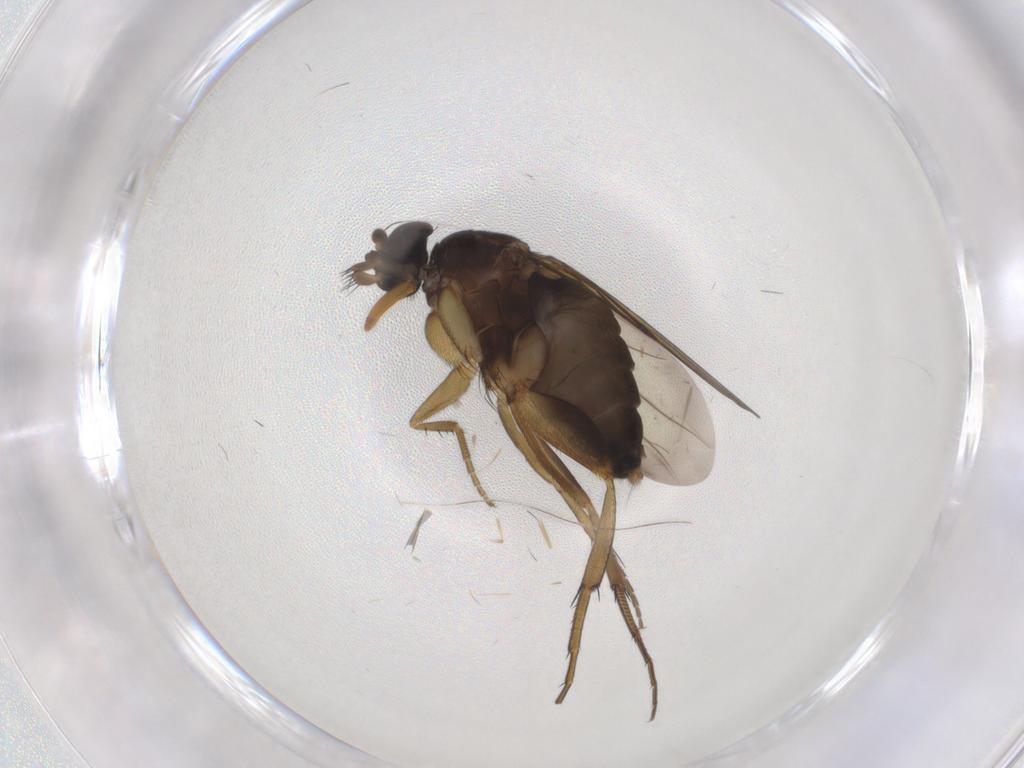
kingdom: Animalia
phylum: Arthropoda
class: Insecta
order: Diptera
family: Phoridae
